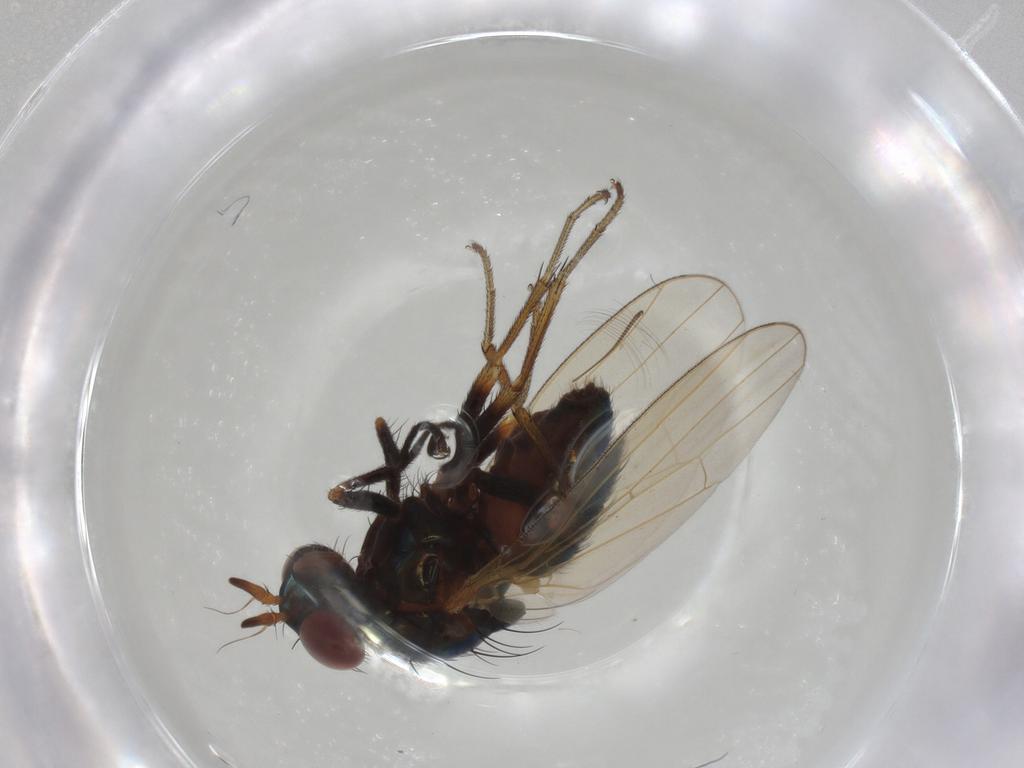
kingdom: Animalia
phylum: Arthropoda
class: Insecta
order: Diptera
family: Lauxaniidae
